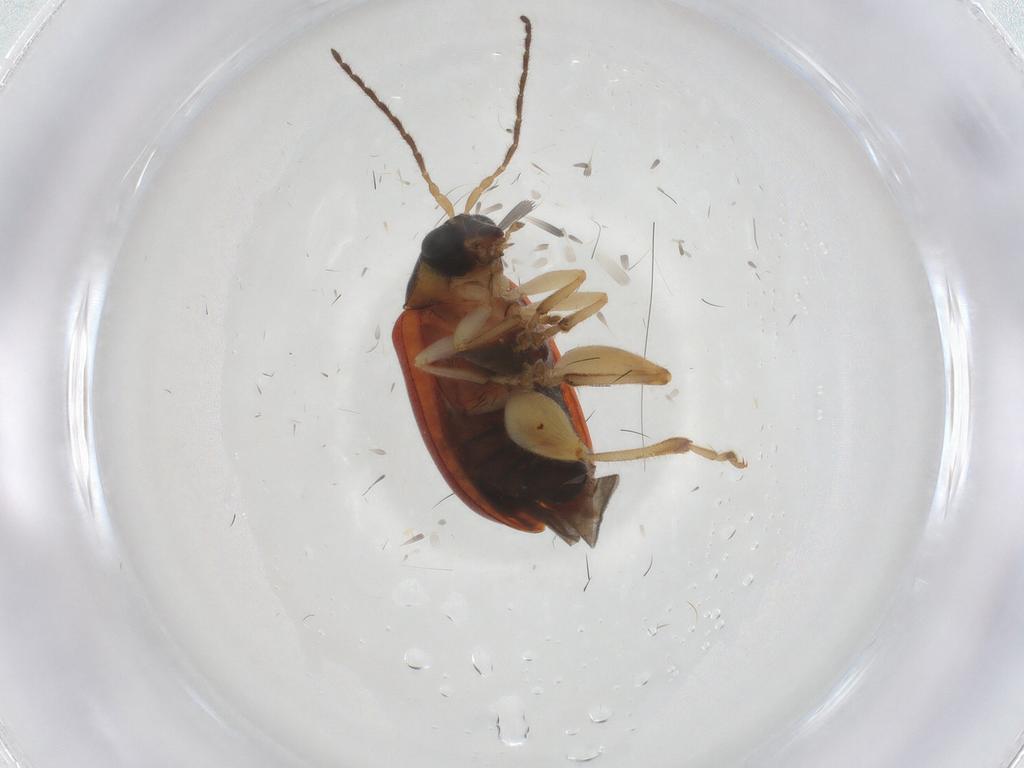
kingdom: Animalia
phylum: Arthropoda
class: Insecta
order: Coleoptera
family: Chrysomelidae
